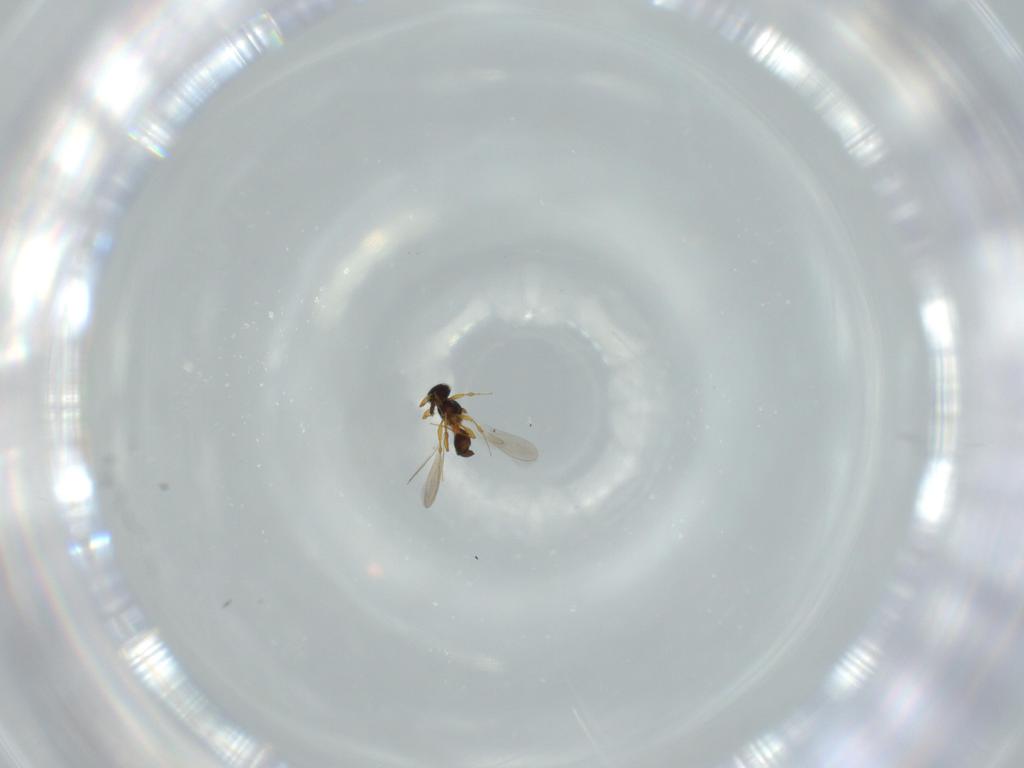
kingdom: Animalia
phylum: Arthropoda
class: Insecta
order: Hymenoptera
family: Platygastridae
